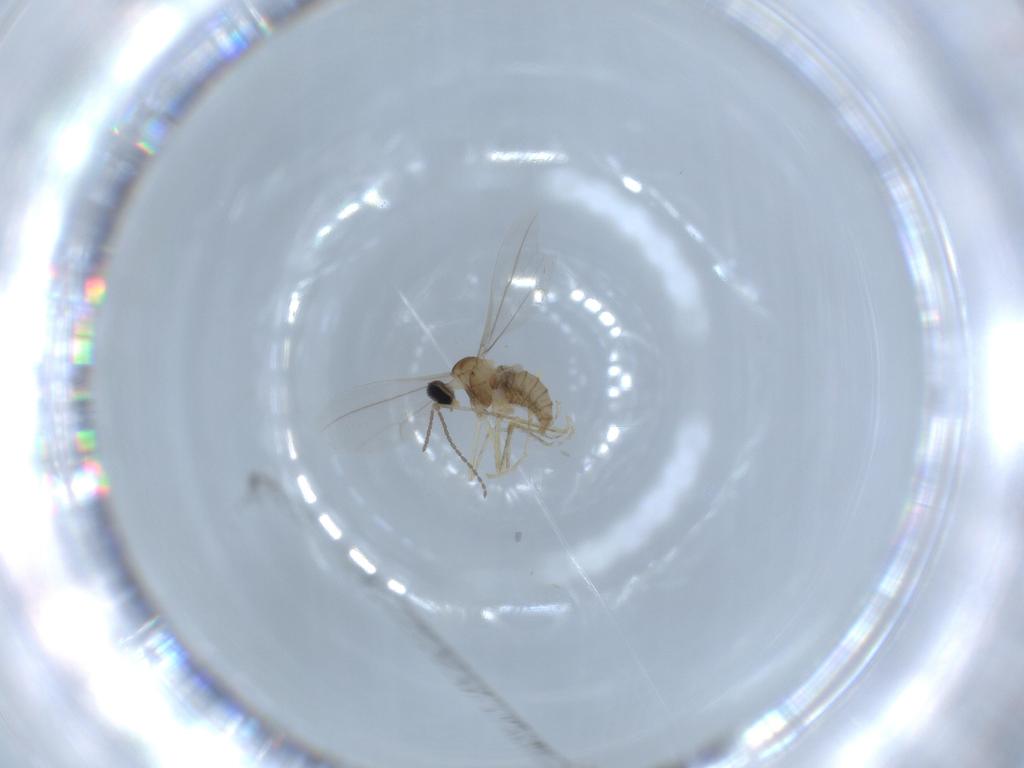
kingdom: Animalia
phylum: Arthropoda
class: Insecta
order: Diptera
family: Cecidomyiidae
